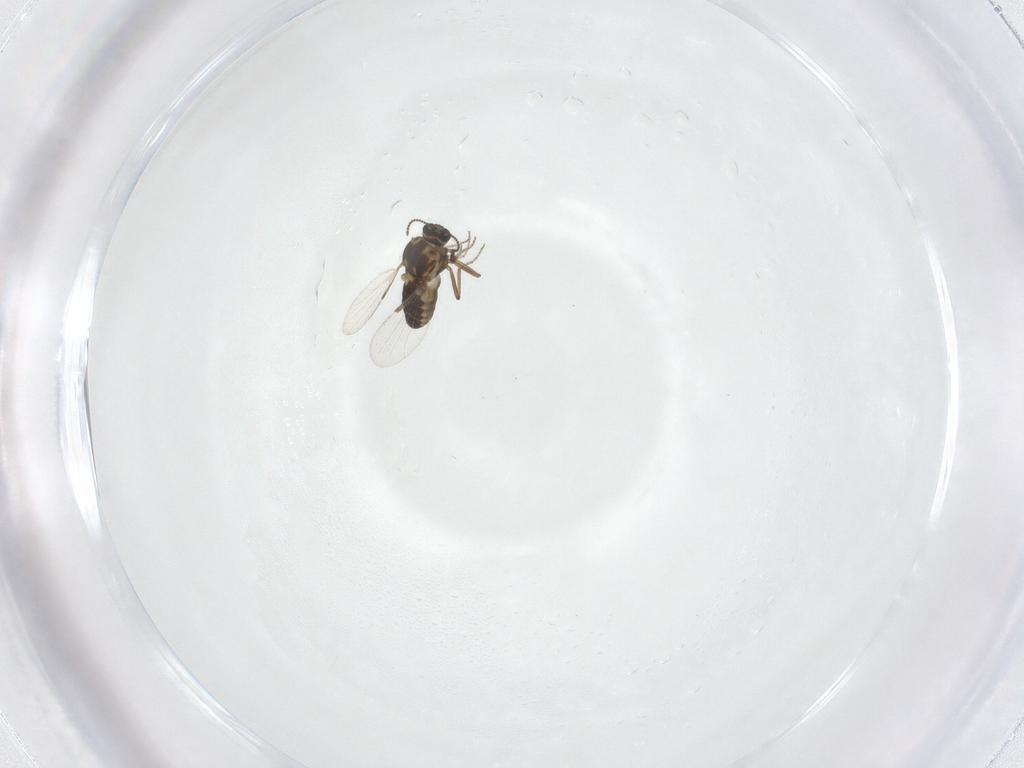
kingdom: Animalia
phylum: Arthropoda
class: Insecta
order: Diptera
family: Ceratopogonidae
